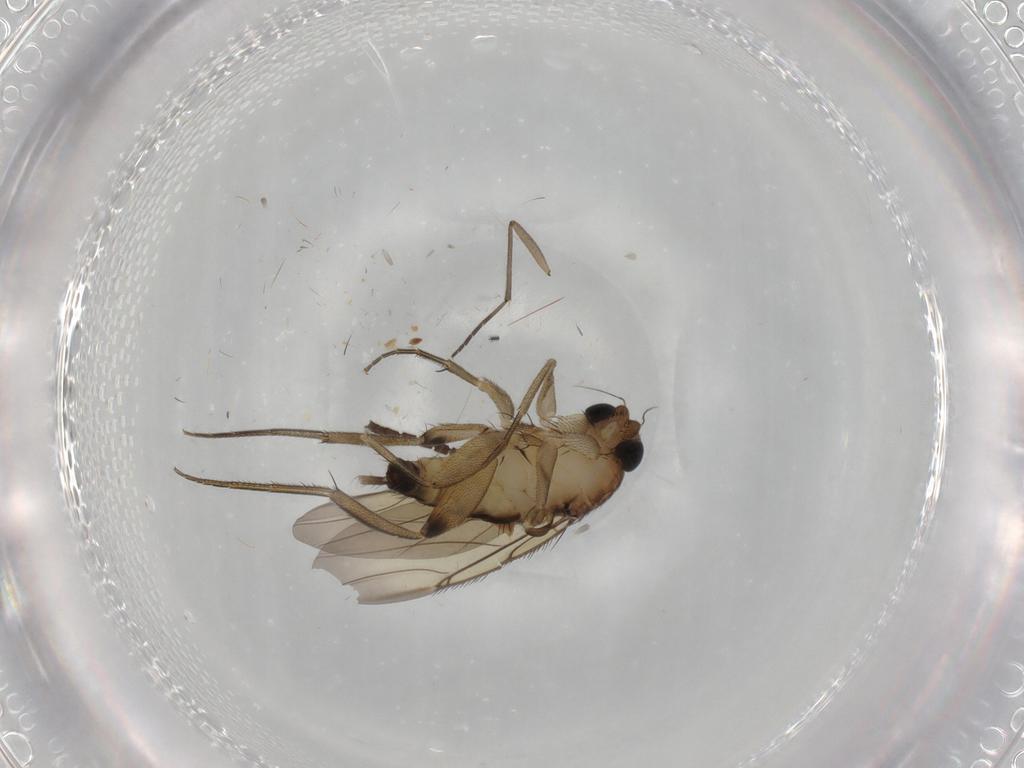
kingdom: Animalia
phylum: Arthropoda
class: Insecta
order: Diptera
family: Phoridae
